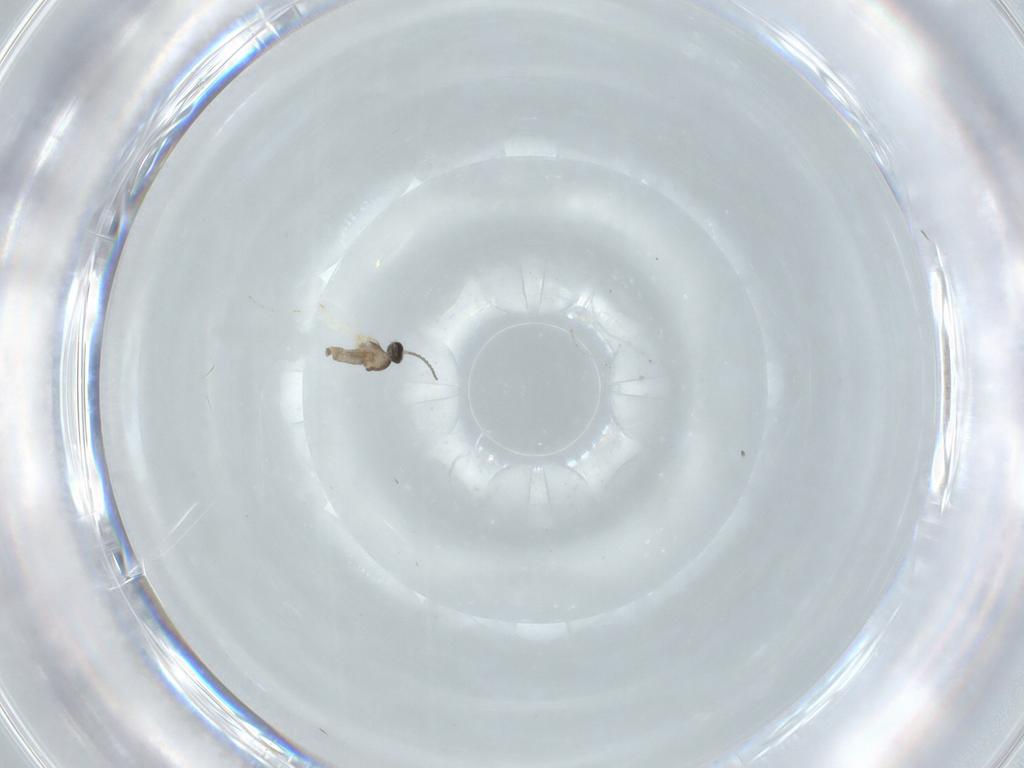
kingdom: Animalia
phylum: Arthropoda
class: Insecta
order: Diptera
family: Cecidomyiidae
